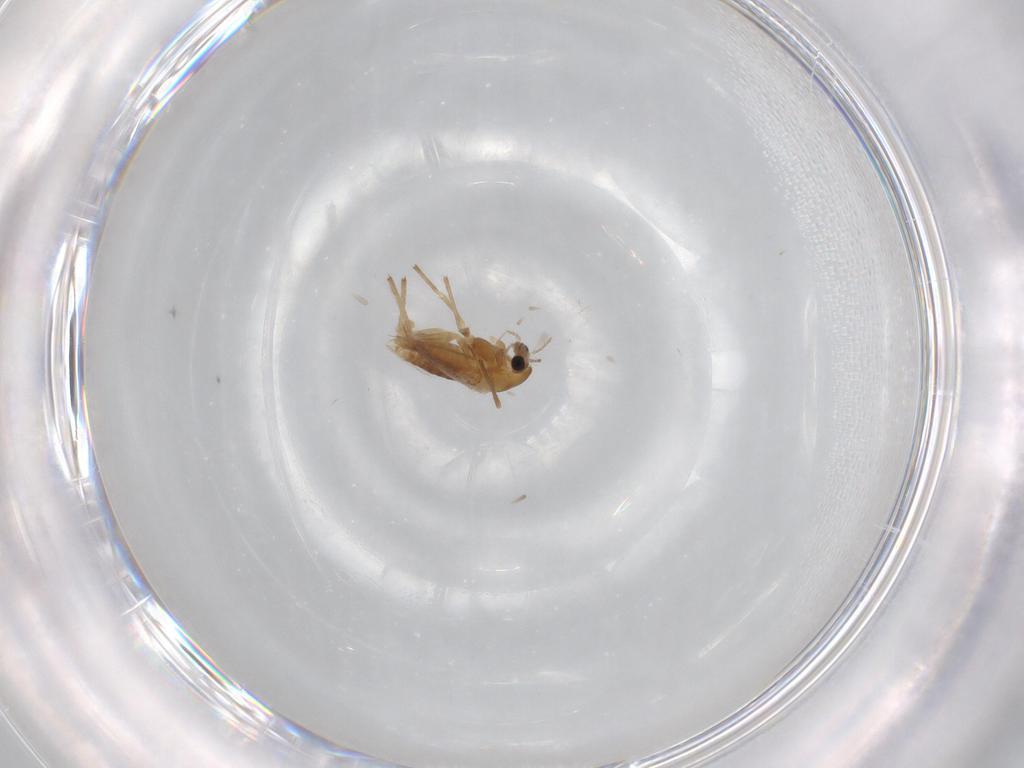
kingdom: Animalia
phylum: Arthropoda
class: Insecta
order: Diptera
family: Chironomidae
